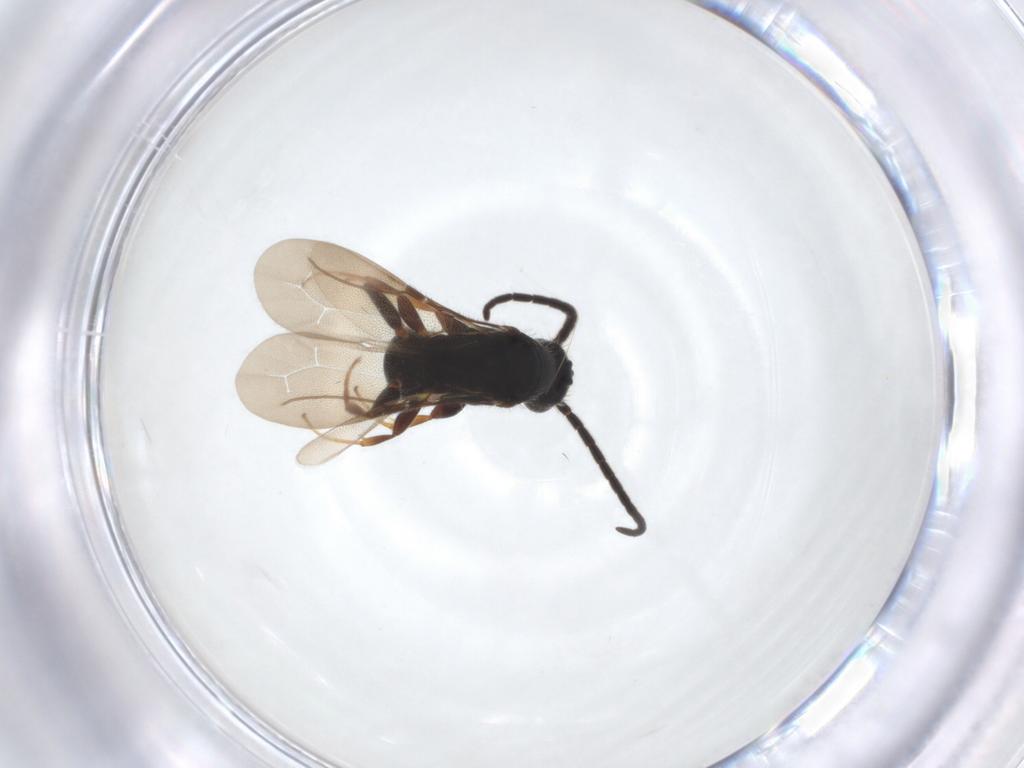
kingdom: Animalia
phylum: Arthropoda
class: Insecta
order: Hymenoptera
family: Bethylidae
